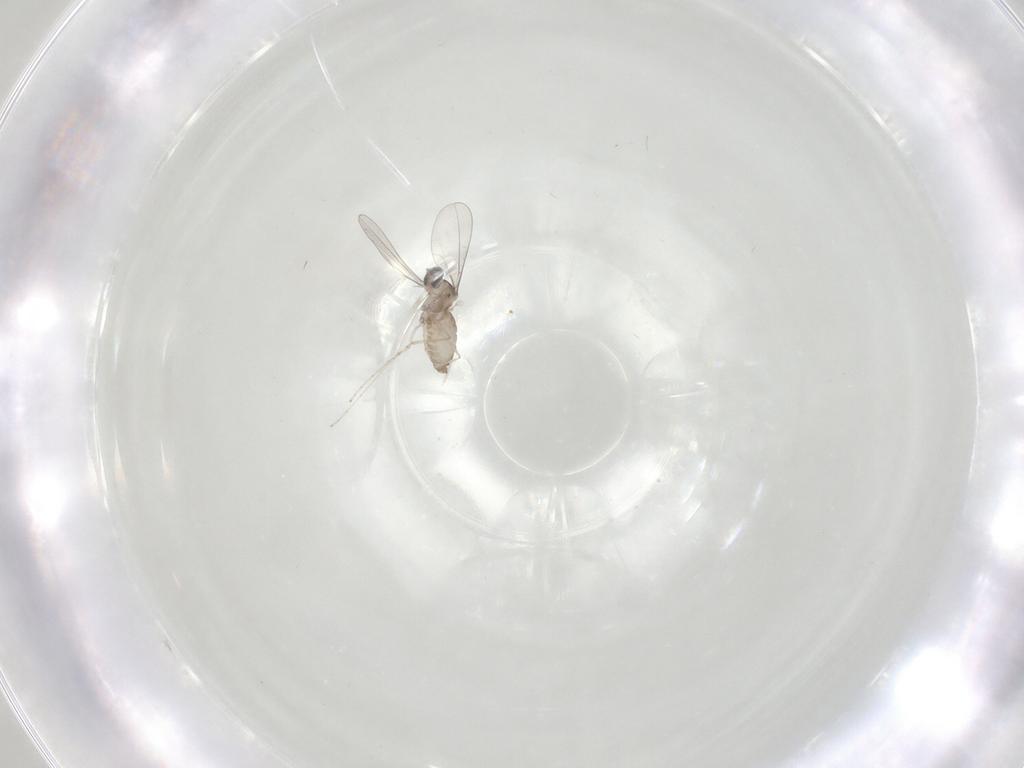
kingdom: Animalia
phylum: Arthropoda
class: Insecta
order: Diptera
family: Cecidomyiidae
